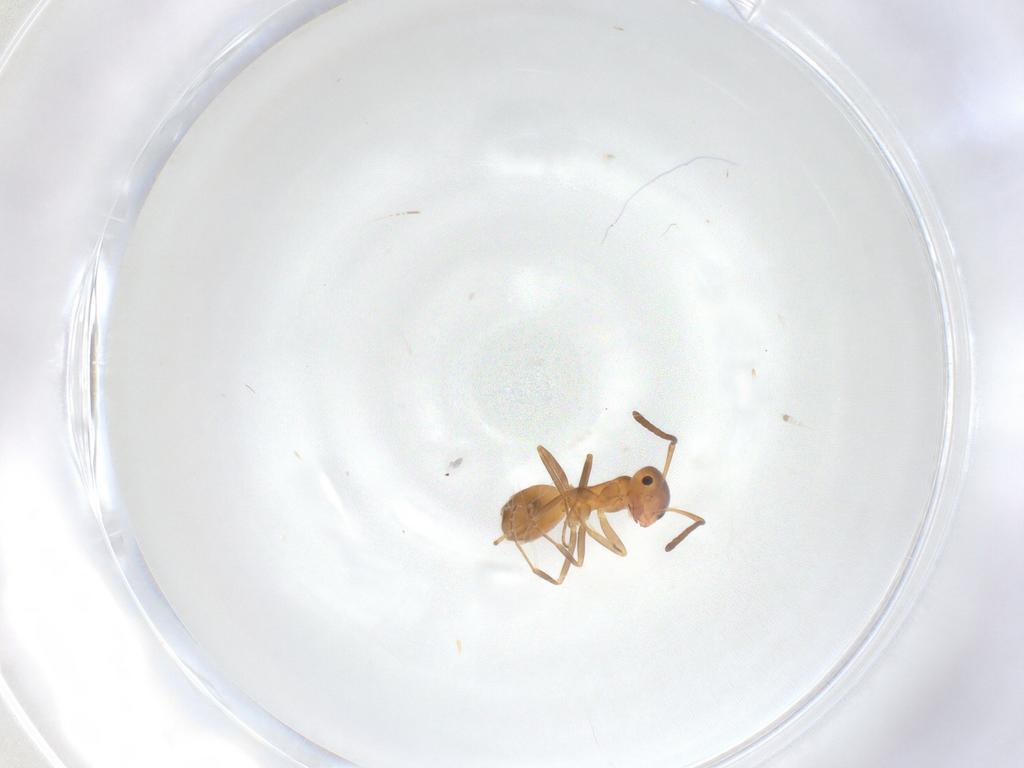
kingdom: Animalia
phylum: Arthropoda
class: Insecta
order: Hymenoptera
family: Formicidae
